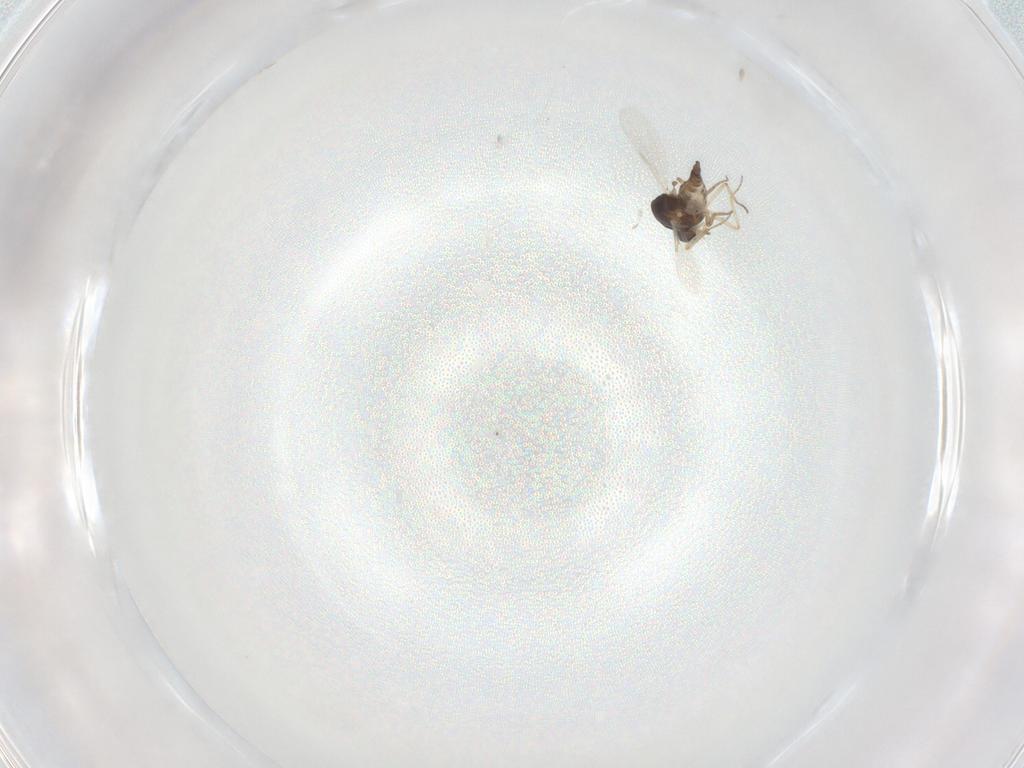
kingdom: Animalia
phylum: Arthropoda
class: Insecta
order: Diptera
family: Ceratopogonidae
